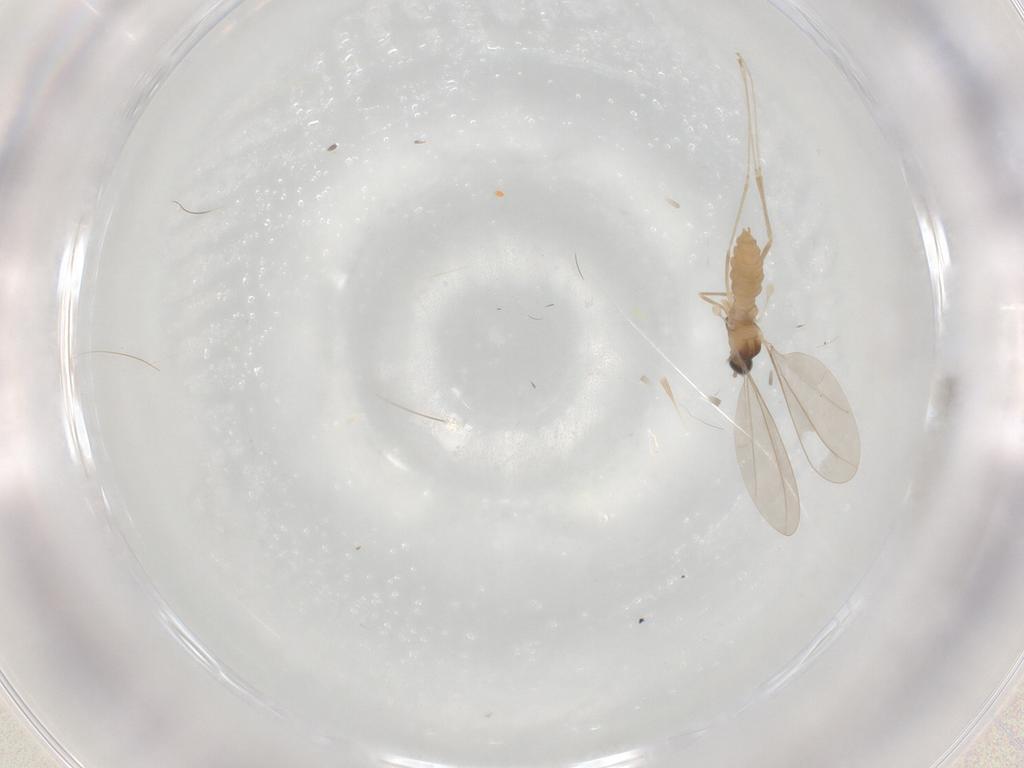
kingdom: Animalia
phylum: Arthropoda
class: Insecta
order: Diptera
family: Cecidomyiidae
